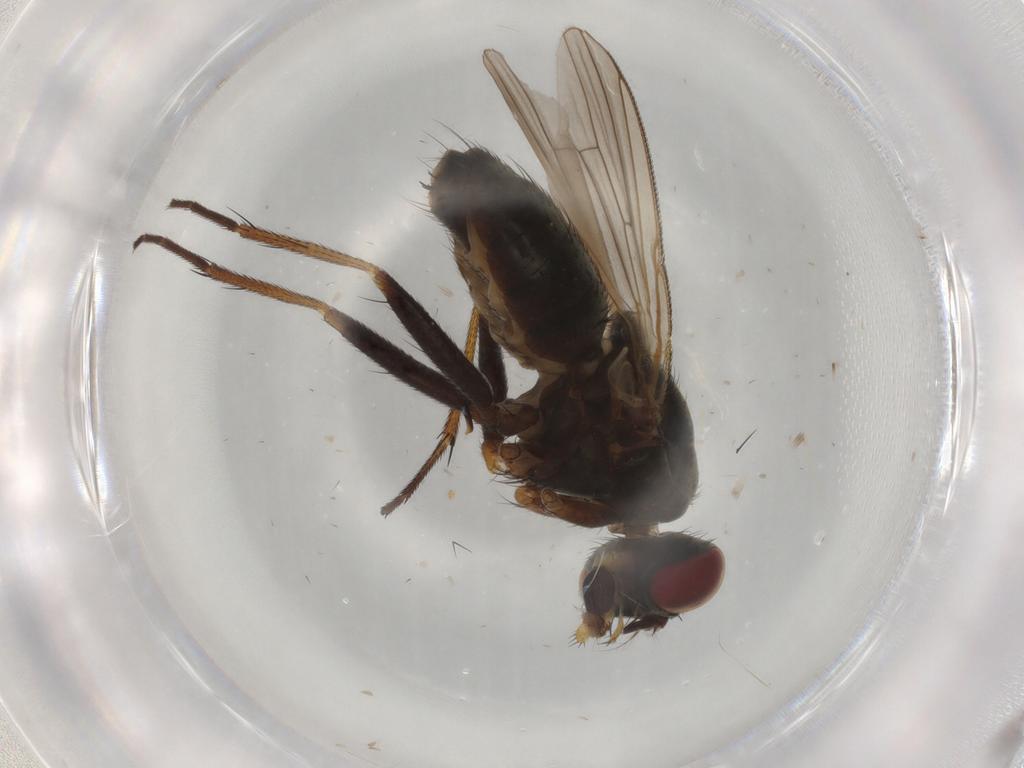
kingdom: Animalia
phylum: Arthropoda
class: Insecta
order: Diptera
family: Muscidae
